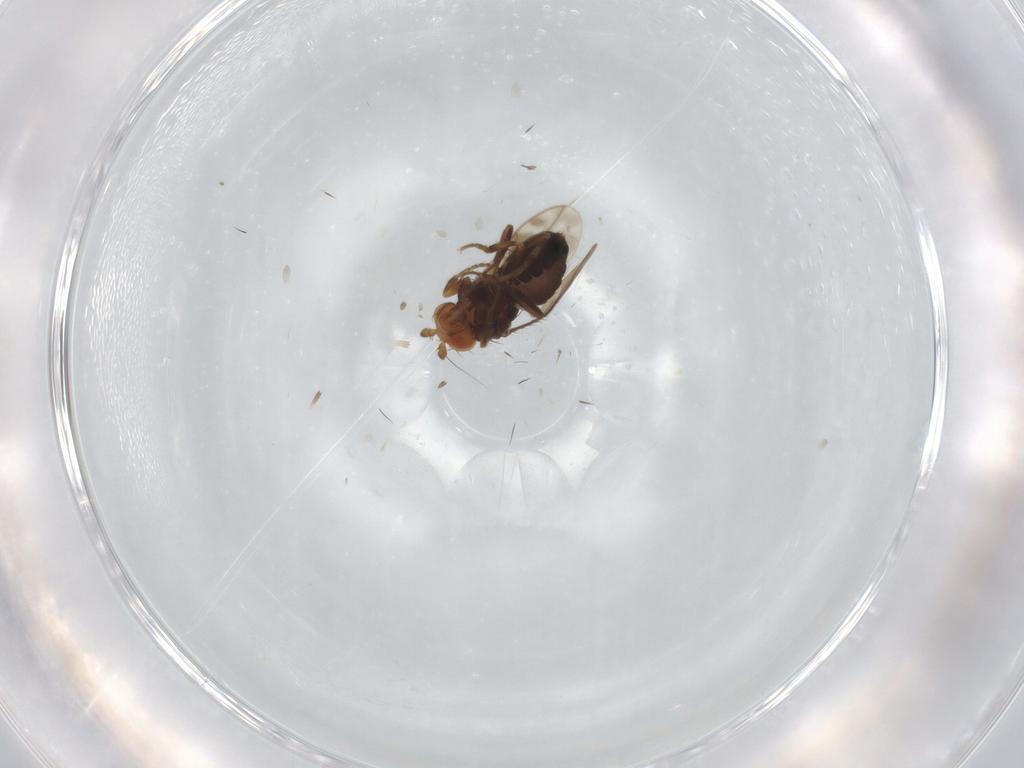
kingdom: Animalia
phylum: Arthropoda
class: Insecta
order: Diptera
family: Sphaeroceridae
